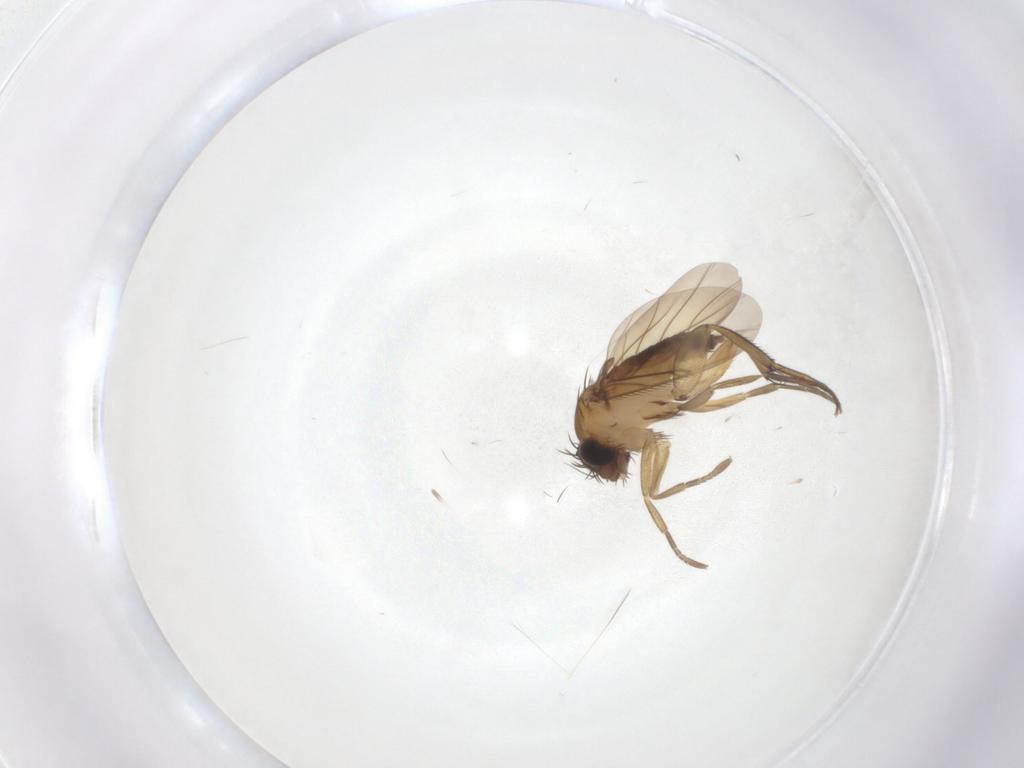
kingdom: Animalia
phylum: Arthropoda
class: Insecta
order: Diptera
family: Phoridae
